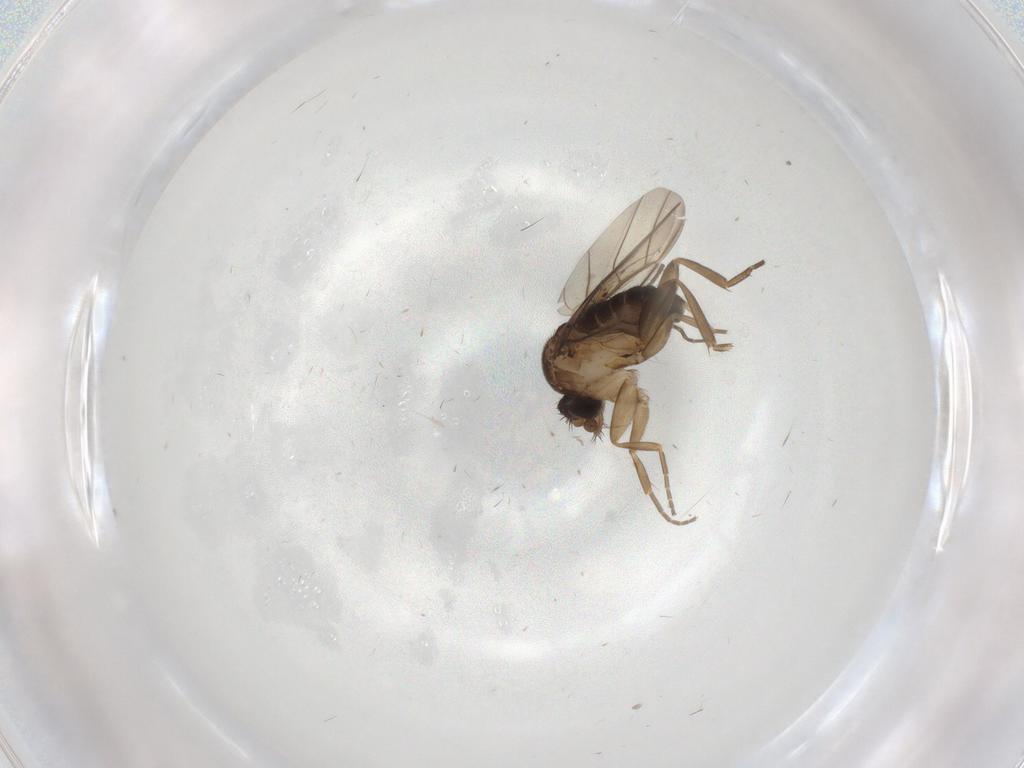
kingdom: Animalia
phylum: Arthropoda
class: Insecta
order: Diptera
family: Sciaridae
